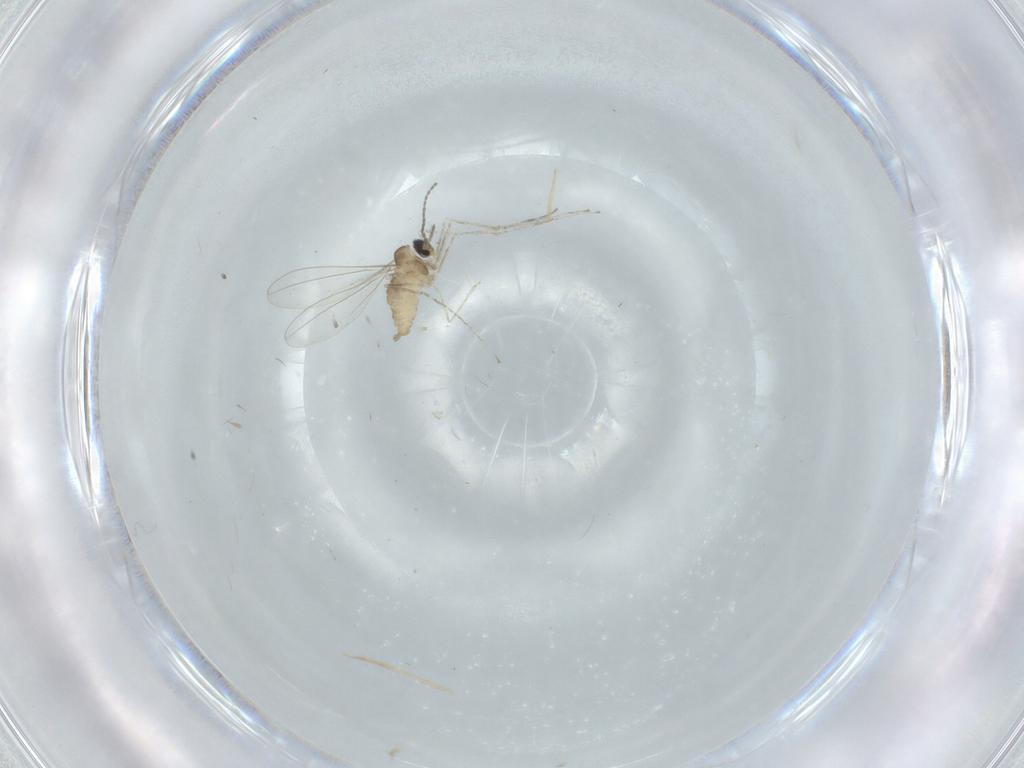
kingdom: Animalia
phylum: Arthropoda
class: Insecta
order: Diptera
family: Cecidomyiidae
